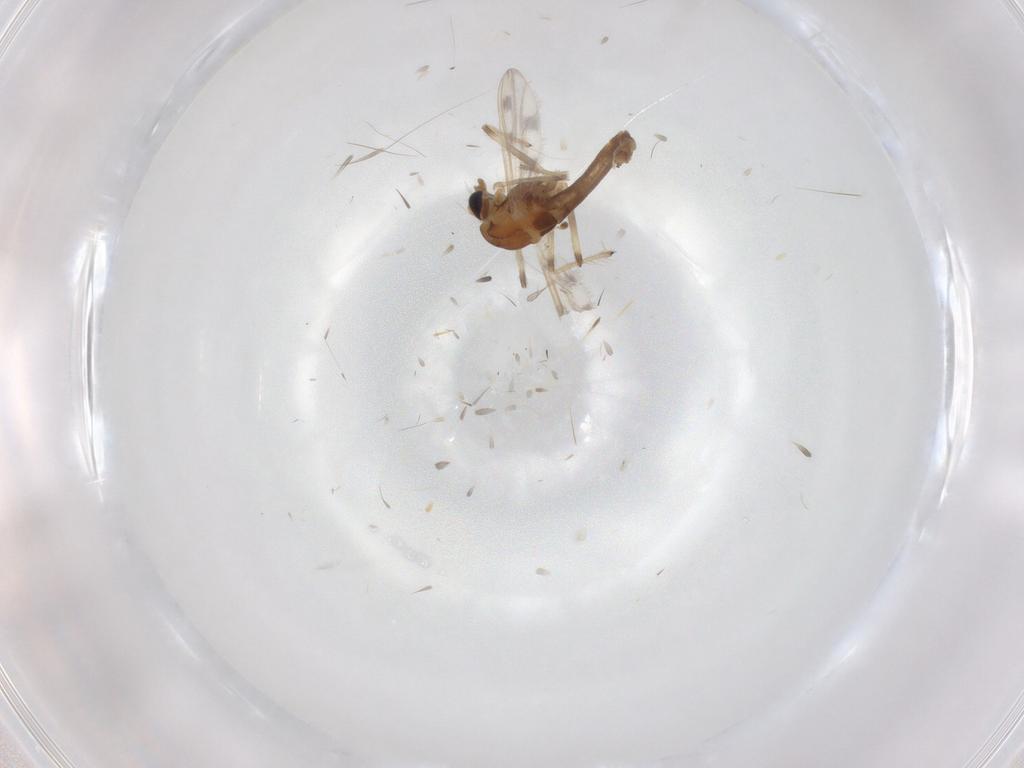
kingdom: Animalia
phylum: Arthropoda
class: Insecta
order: Diptera
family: Chironomidae
